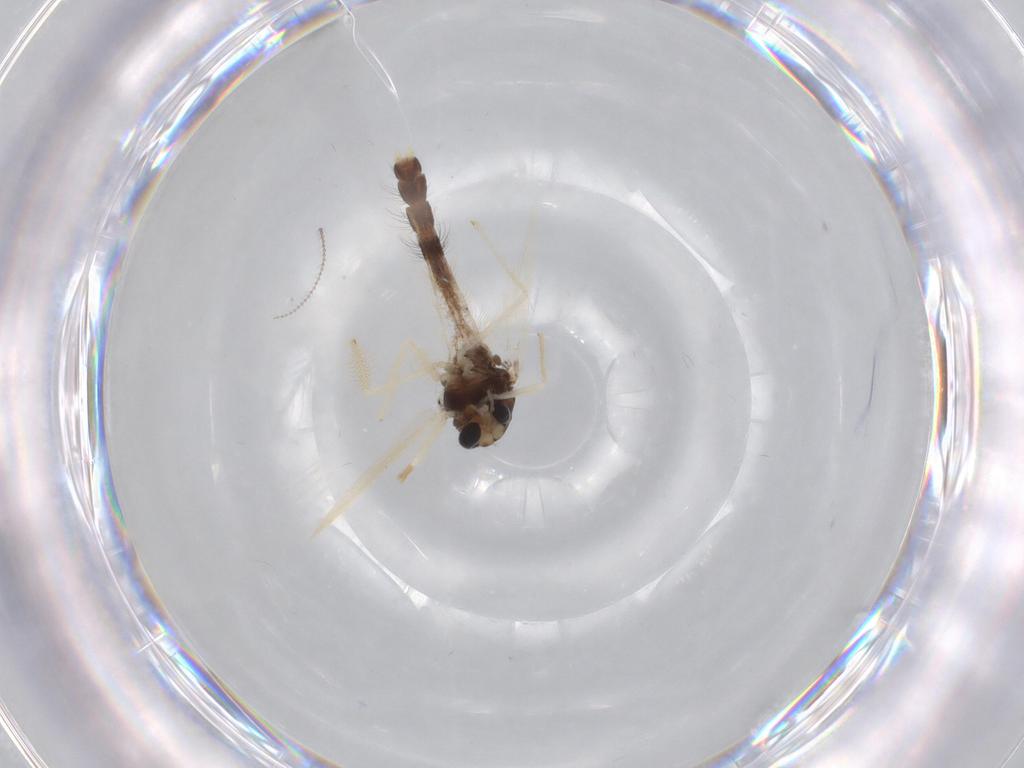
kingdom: Animalia
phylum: Arthropoda
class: Insecta
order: Diptera
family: Chironomidae
